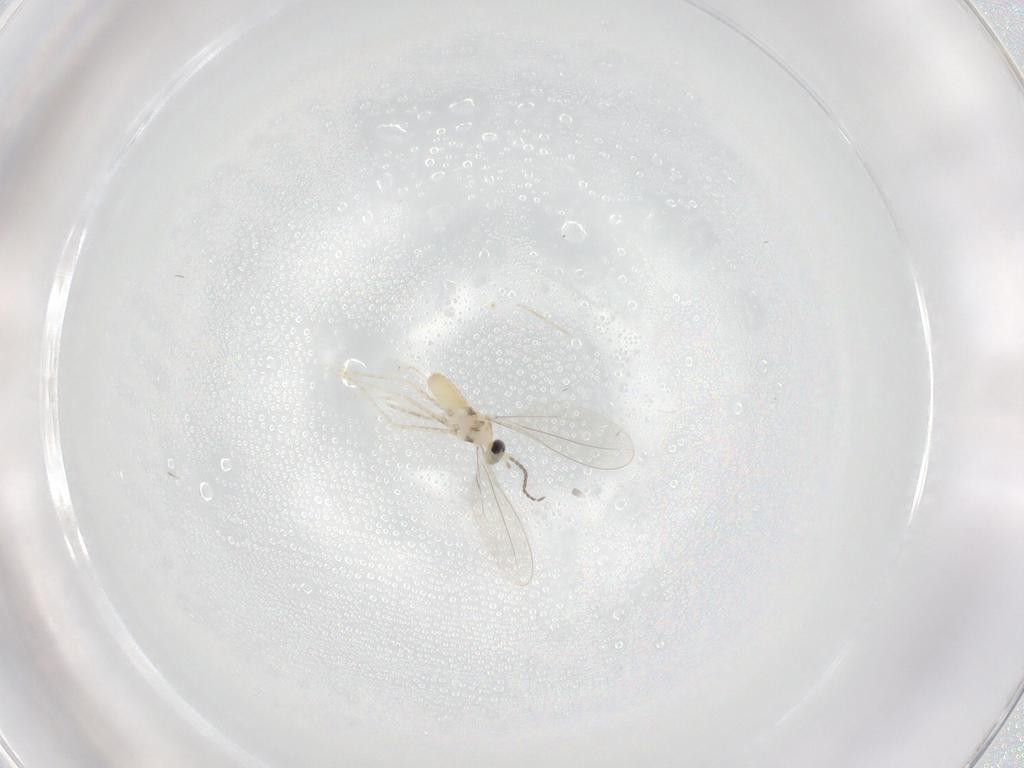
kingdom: Animalia
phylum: Arthropoda
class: Insecta
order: Diptera
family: Cecidomyiidae
